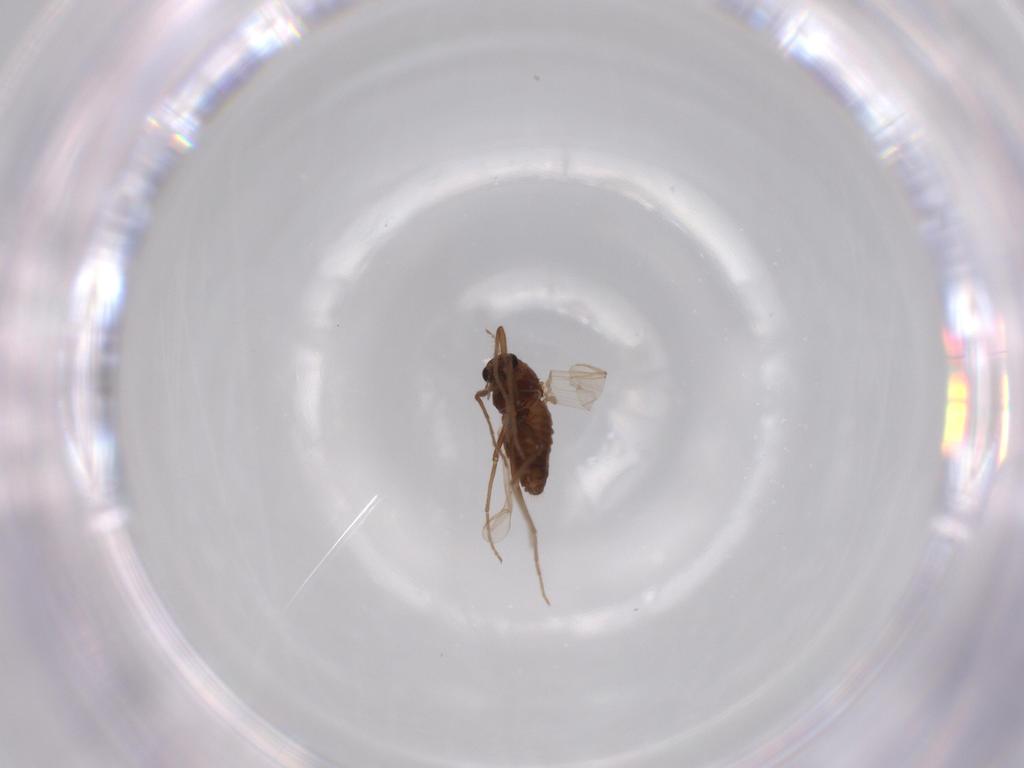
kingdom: Animalia
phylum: Arthropoda
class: Insecta
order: Diptera
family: Chironomidae
